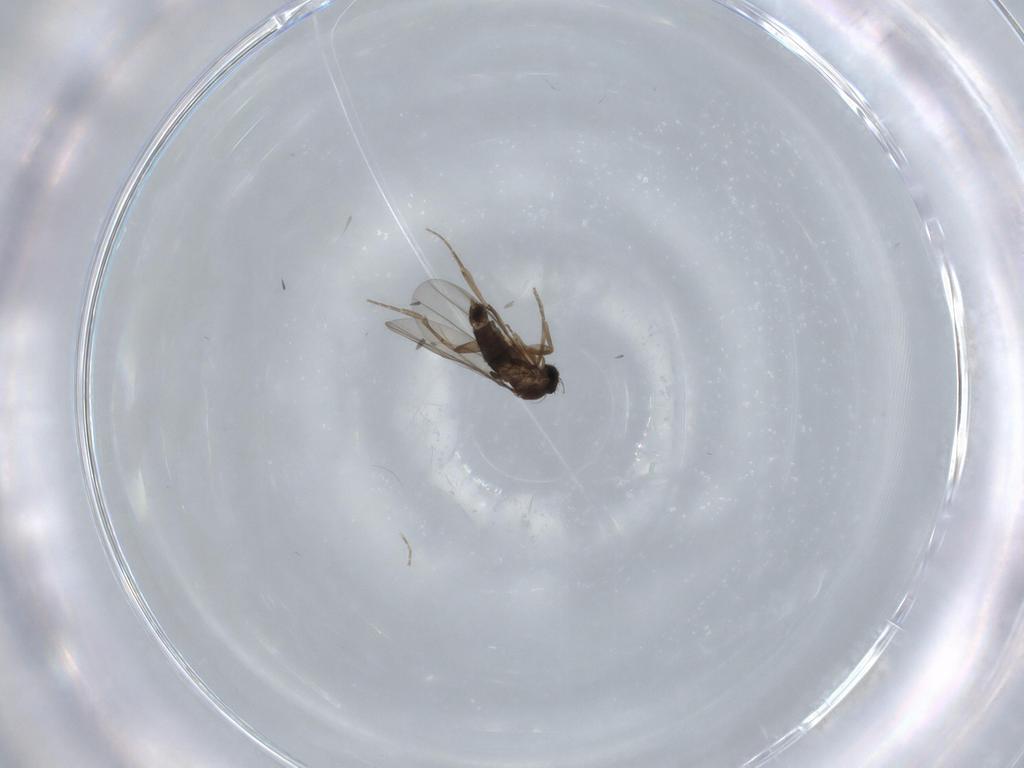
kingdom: Animalia
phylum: Arthropoda
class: Insecta
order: Diptera
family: Phoridae
